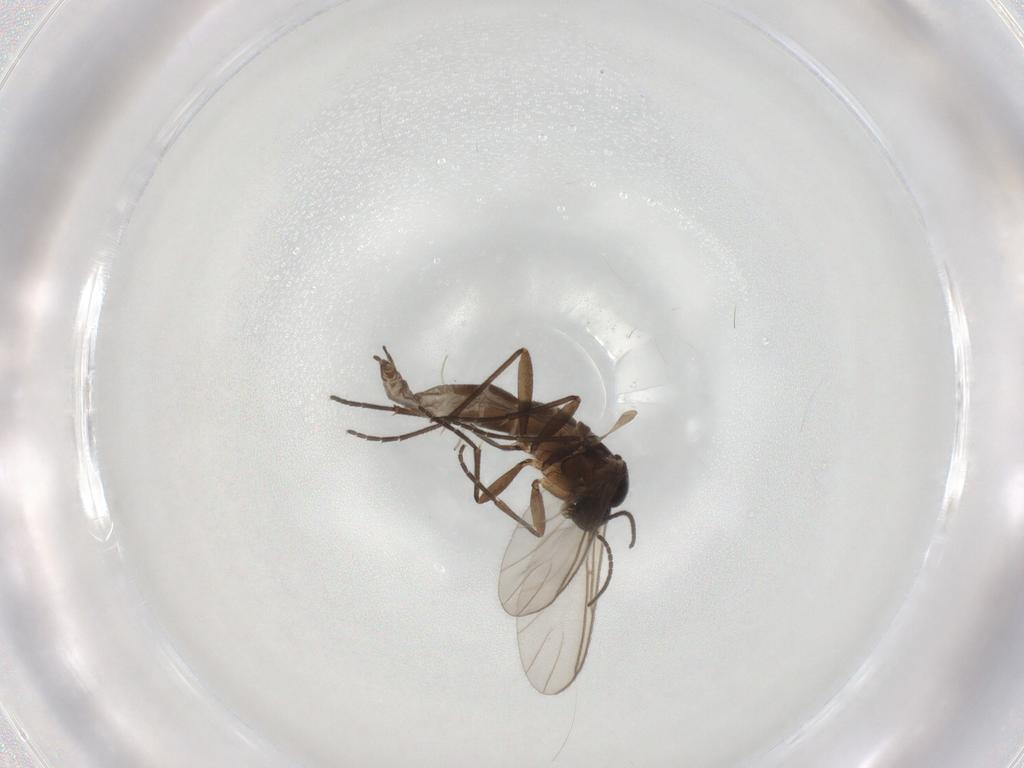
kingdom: Animalia
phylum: Arthropoda
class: Insecta
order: Diptera
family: Sciaridae
